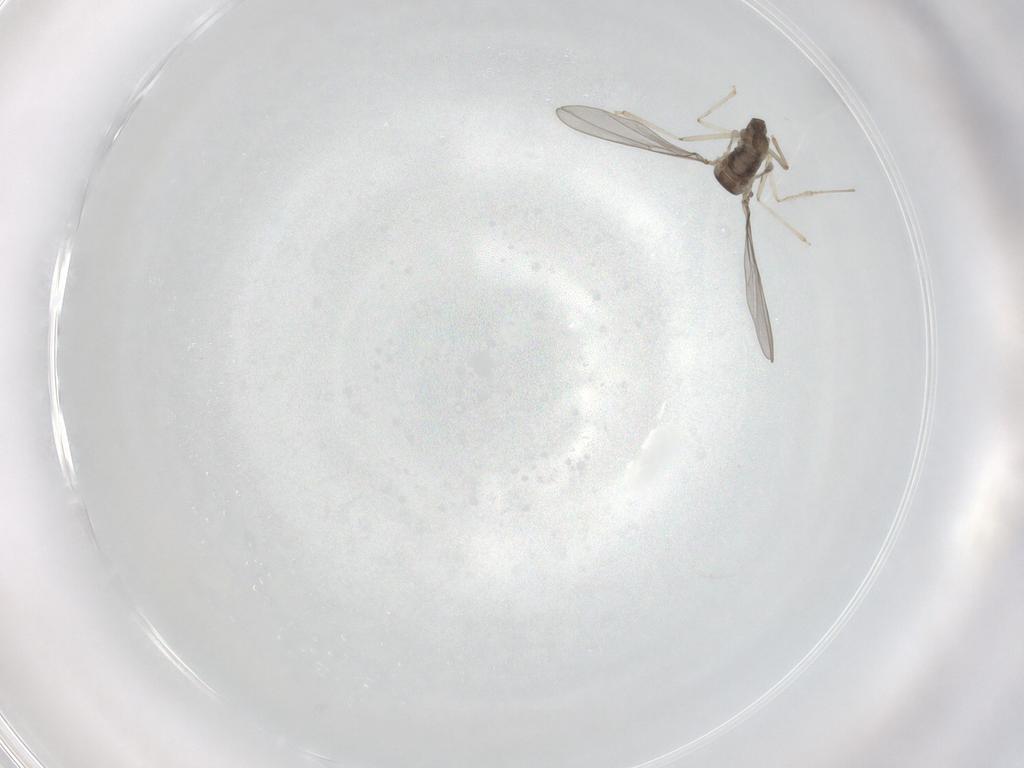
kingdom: Animalia
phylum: Arthropoda
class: Insecta
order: Diptera
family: Cecidomyiidae
